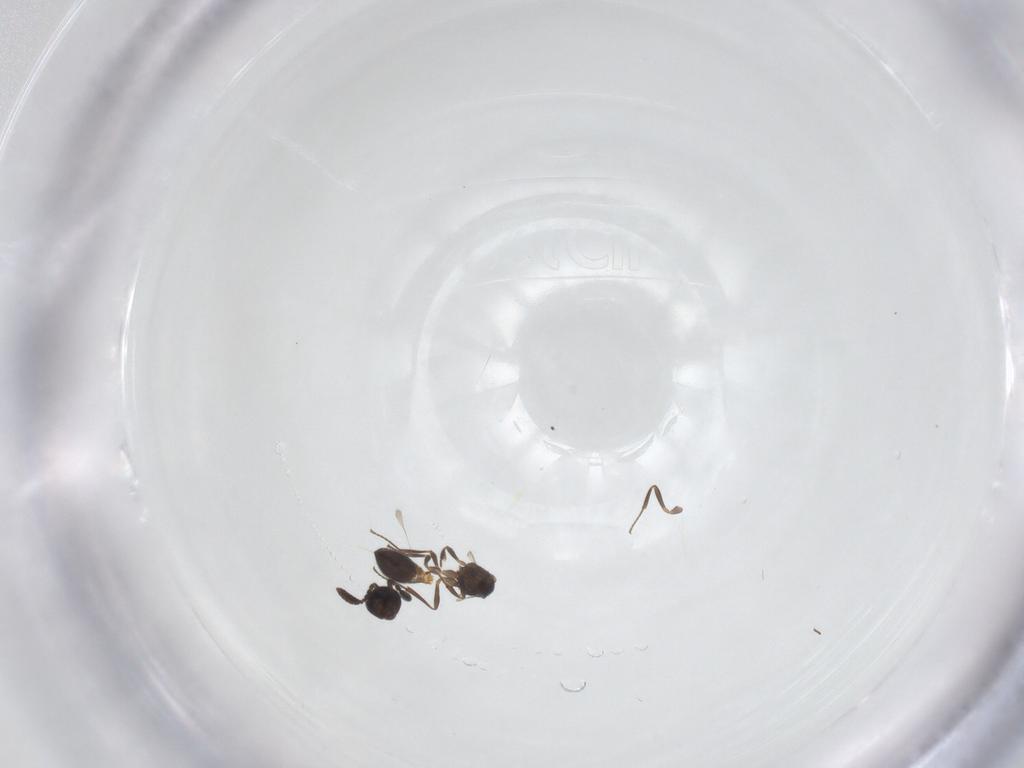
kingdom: Animalia
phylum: Arthropoda
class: Insecta
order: Hymenoptera
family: Scelionidae
